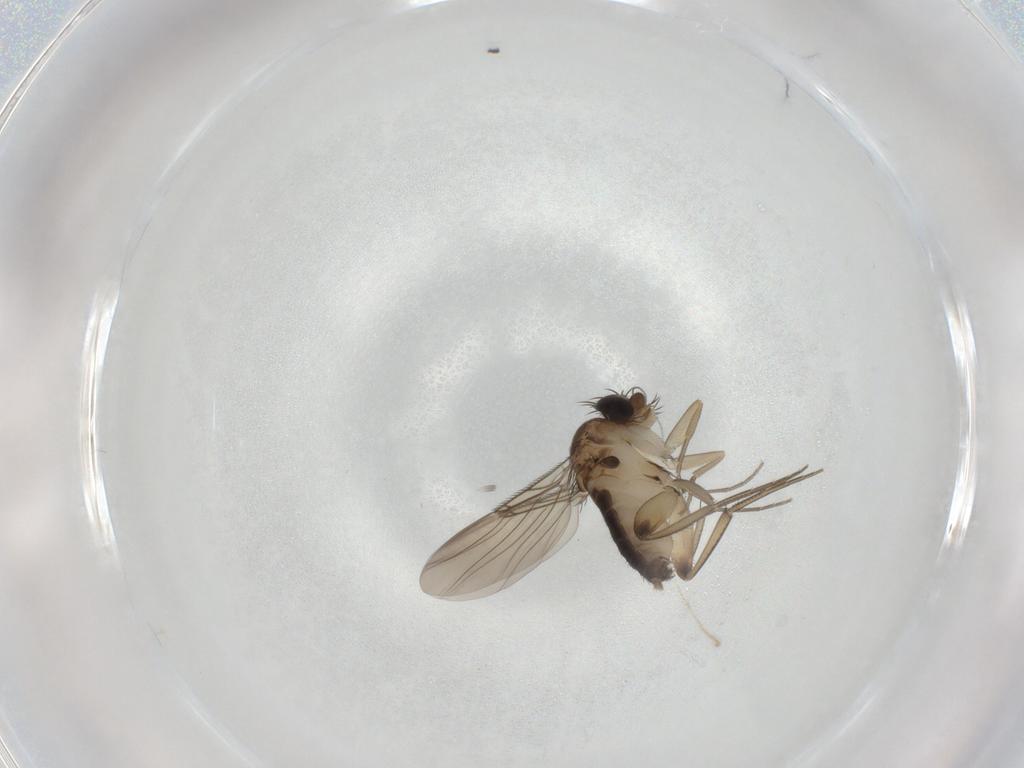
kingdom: Animalia
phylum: Arthropoda
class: Insecta
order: Diptera
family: Phoridae
